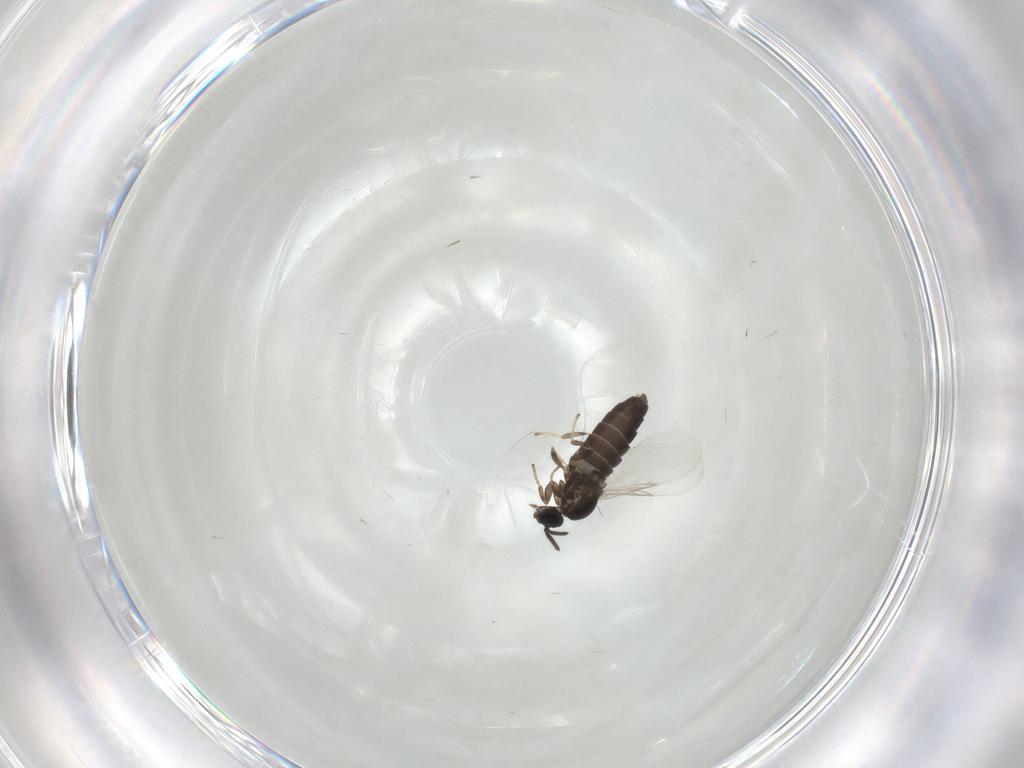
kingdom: Animalia
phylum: Arthropoda
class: Insecta
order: Diptera
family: Scatopsidae
